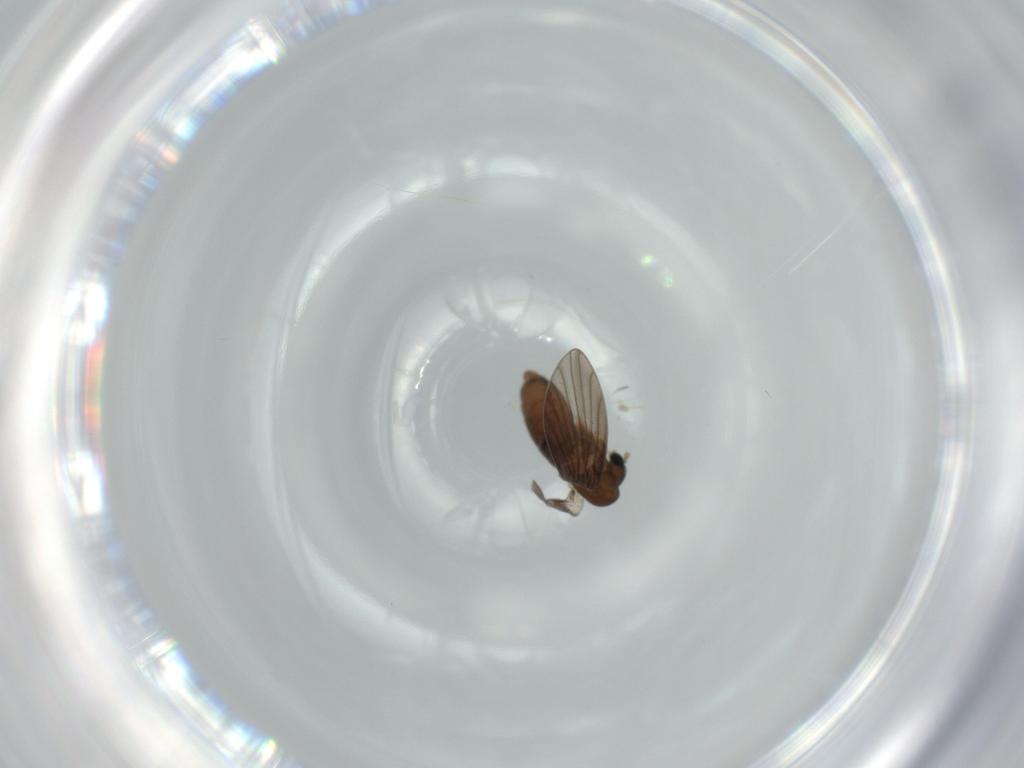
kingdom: Animalia
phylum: Arthropoda
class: Insecta
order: Diptera
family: Psychodidae
